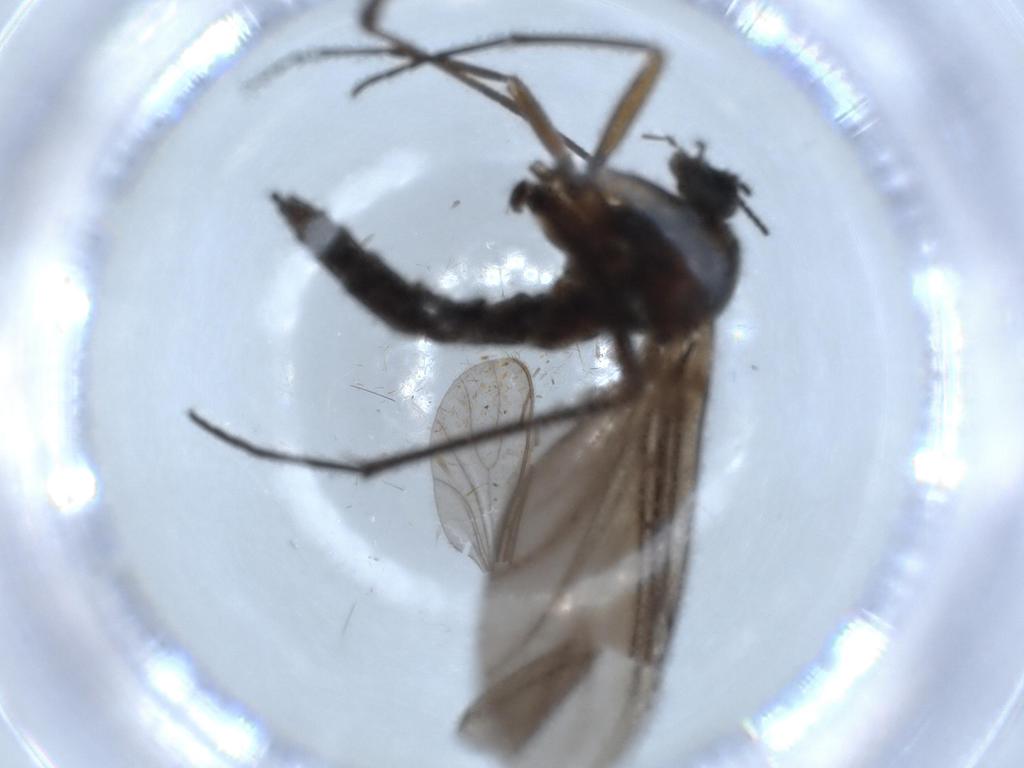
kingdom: Animalia
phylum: Arthropoda
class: Insecta
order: Diptera
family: Sciaridae
